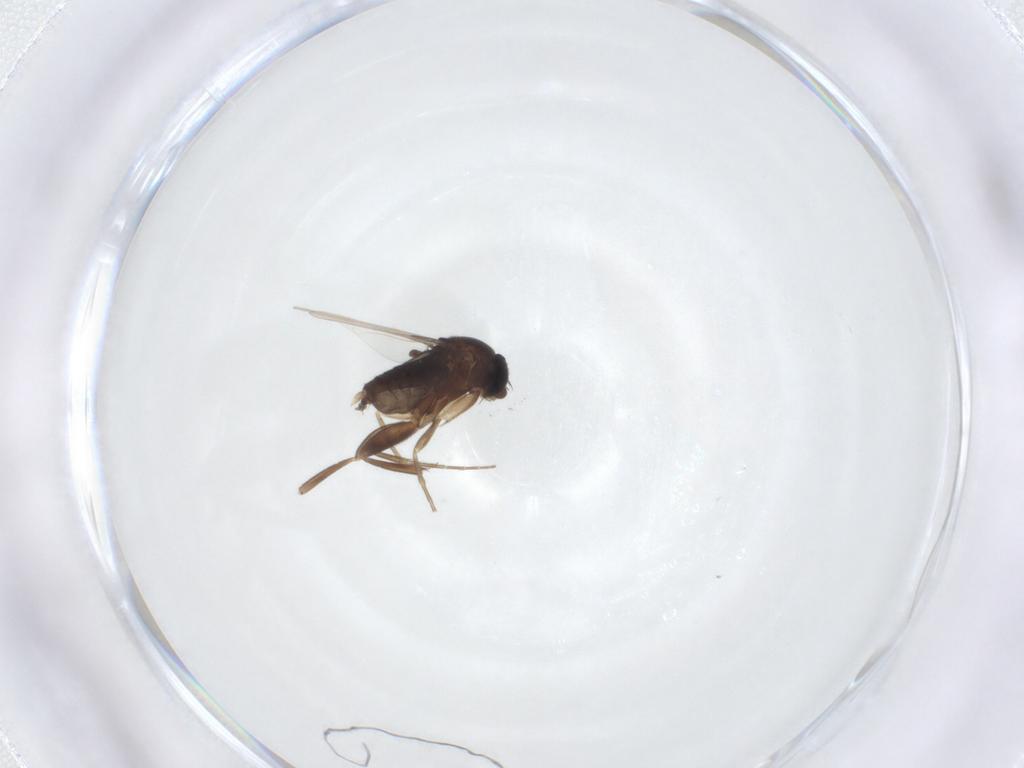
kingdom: Animalia
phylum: Arthropoda
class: Insecta
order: Diptera
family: Phoridae
